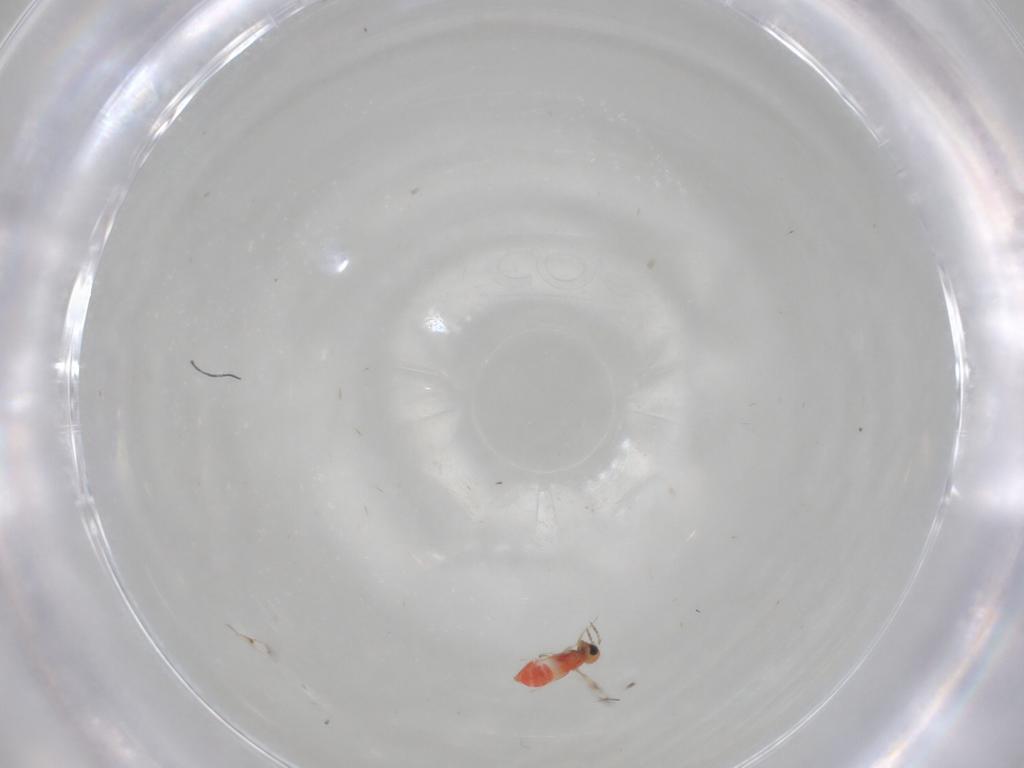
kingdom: Animalia
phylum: Arthropoda
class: Insecta
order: Hymenoptera
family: Trichogrammatidae
